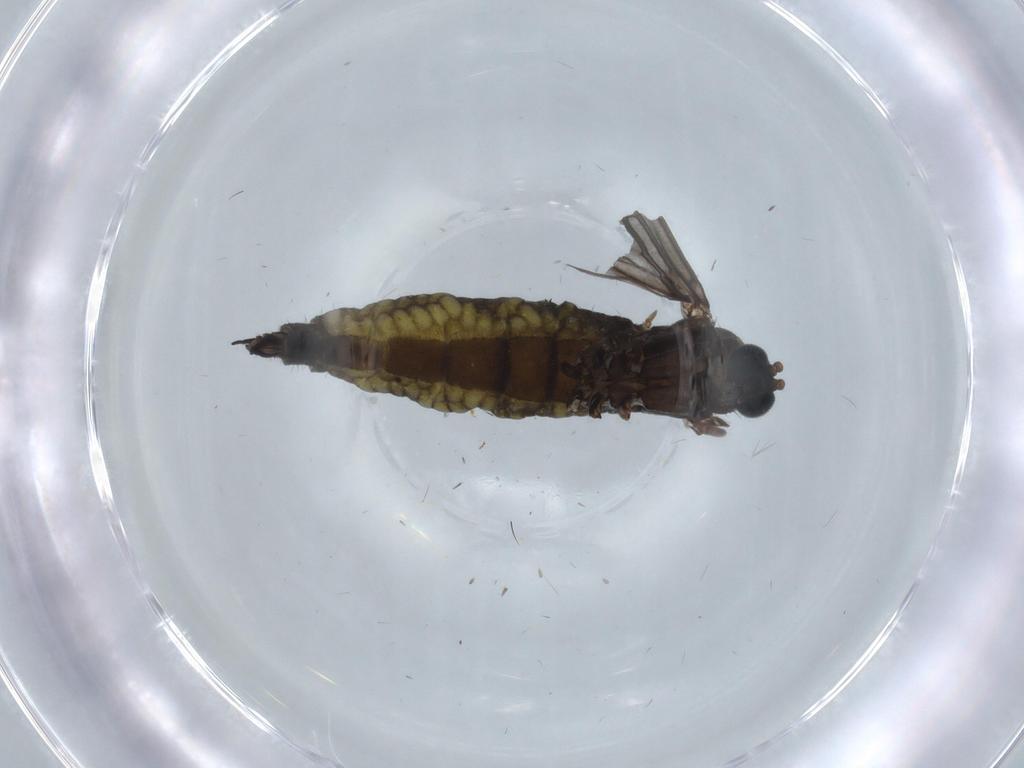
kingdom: Animalia
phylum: Arthropoda
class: Insecta
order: Diptera
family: Sciaridae
